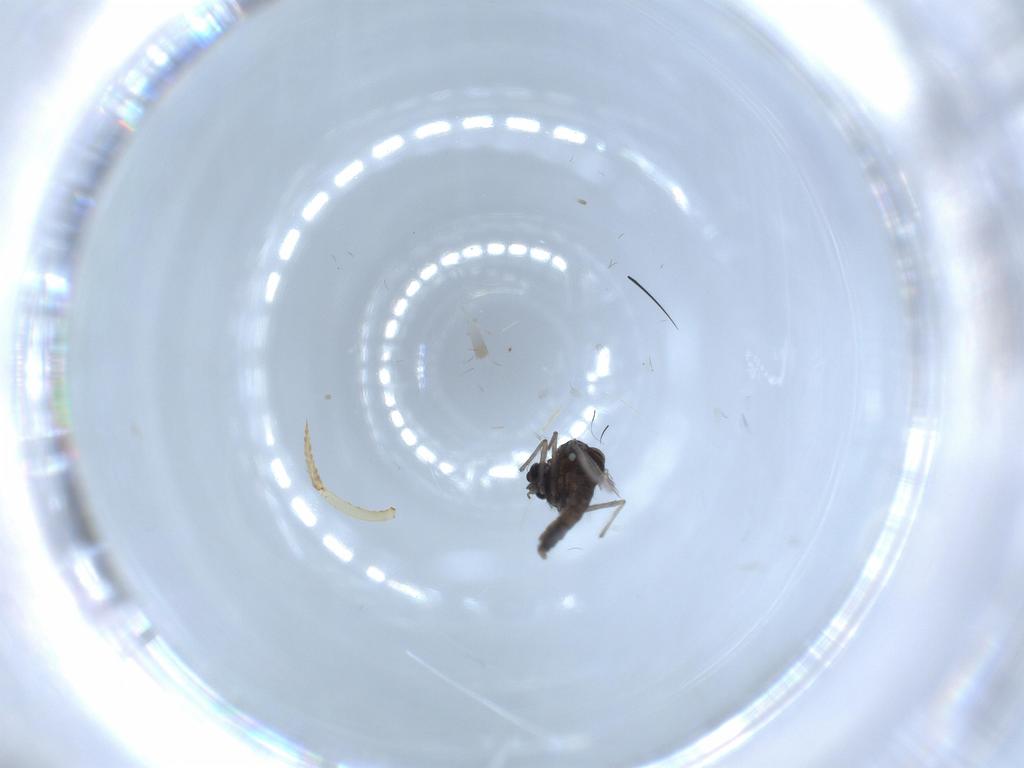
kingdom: Animalia
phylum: Arthropoda
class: Insecta
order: Diptera
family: Chironomidae
